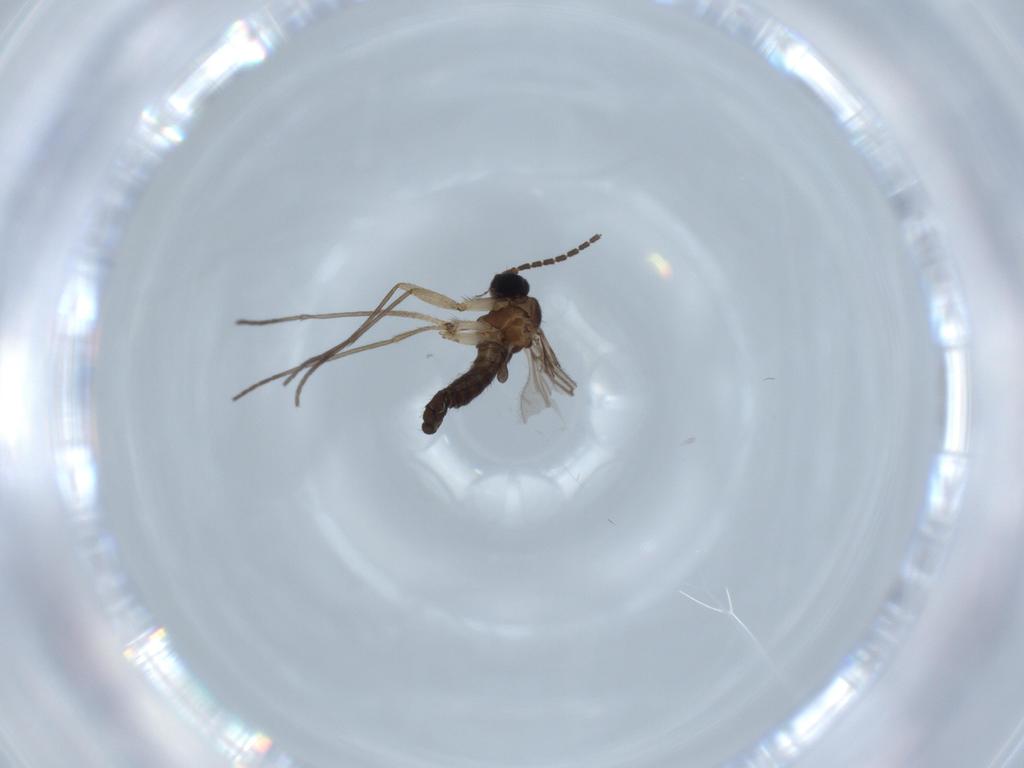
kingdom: Animalia
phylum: Arthropoda
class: Insecta
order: Diptera
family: Sciaridae
